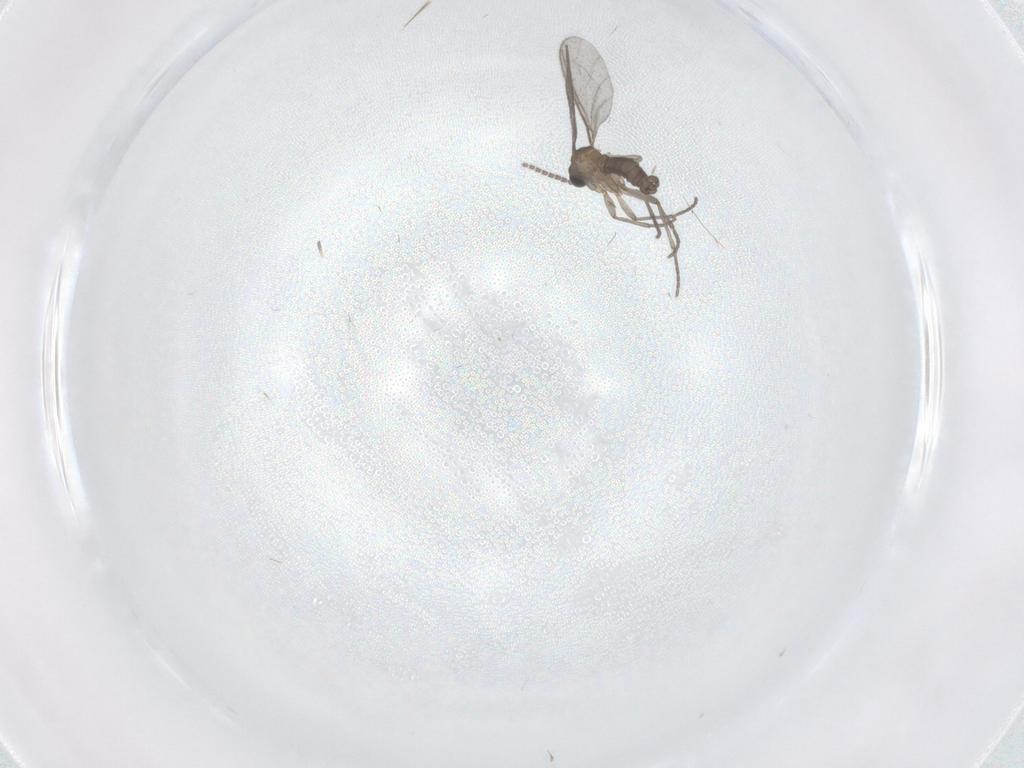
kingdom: Animalia
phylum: Arthropoda
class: Insecta
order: Diptera
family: Sciaridae
